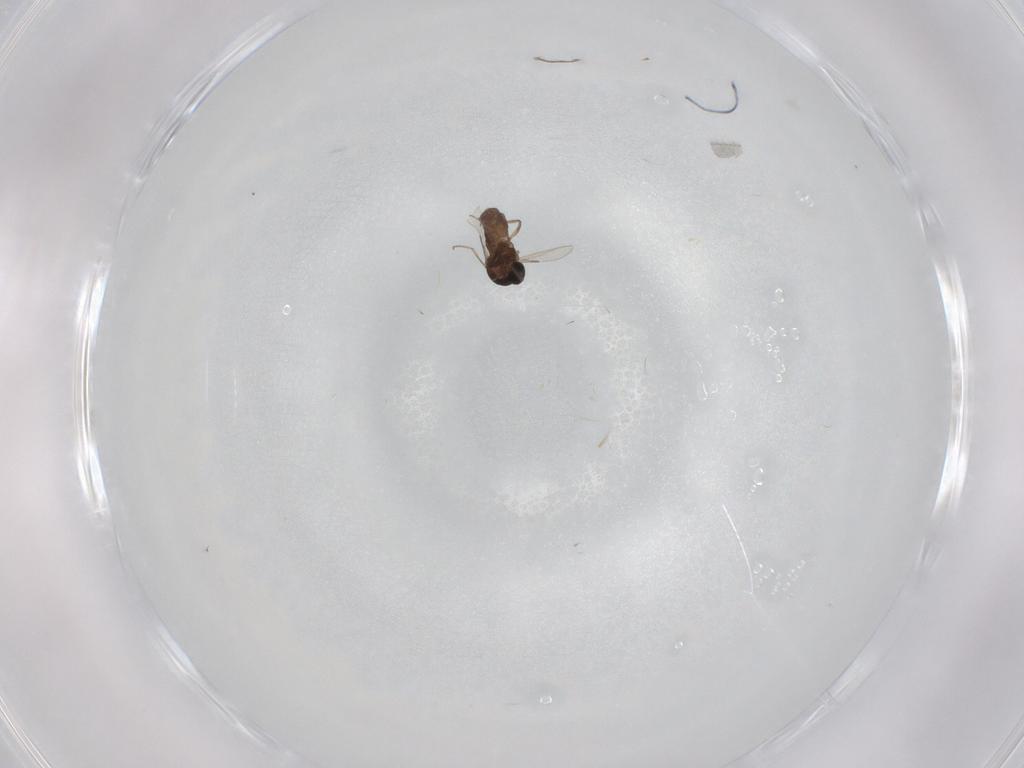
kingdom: Animalia
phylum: Arthropoda
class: Insecta
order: Diptera
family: Ceratopogonidae
